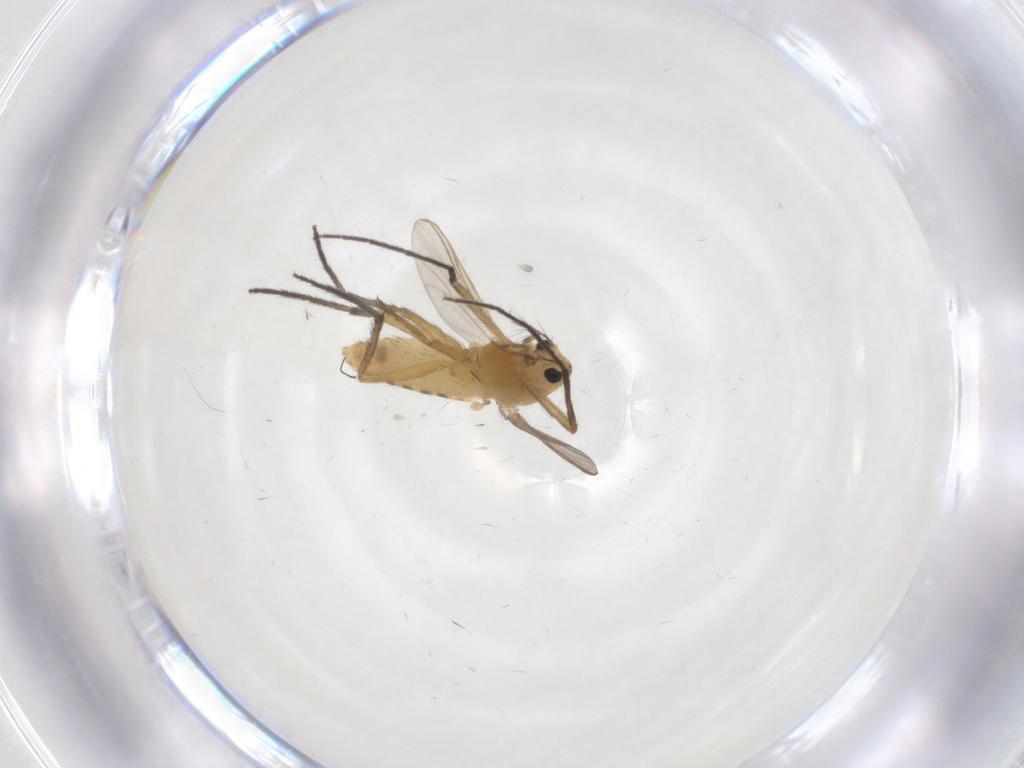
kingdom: Animalia
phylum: Arthropoda
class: Insecta
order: Diptera
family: Chironomidae
